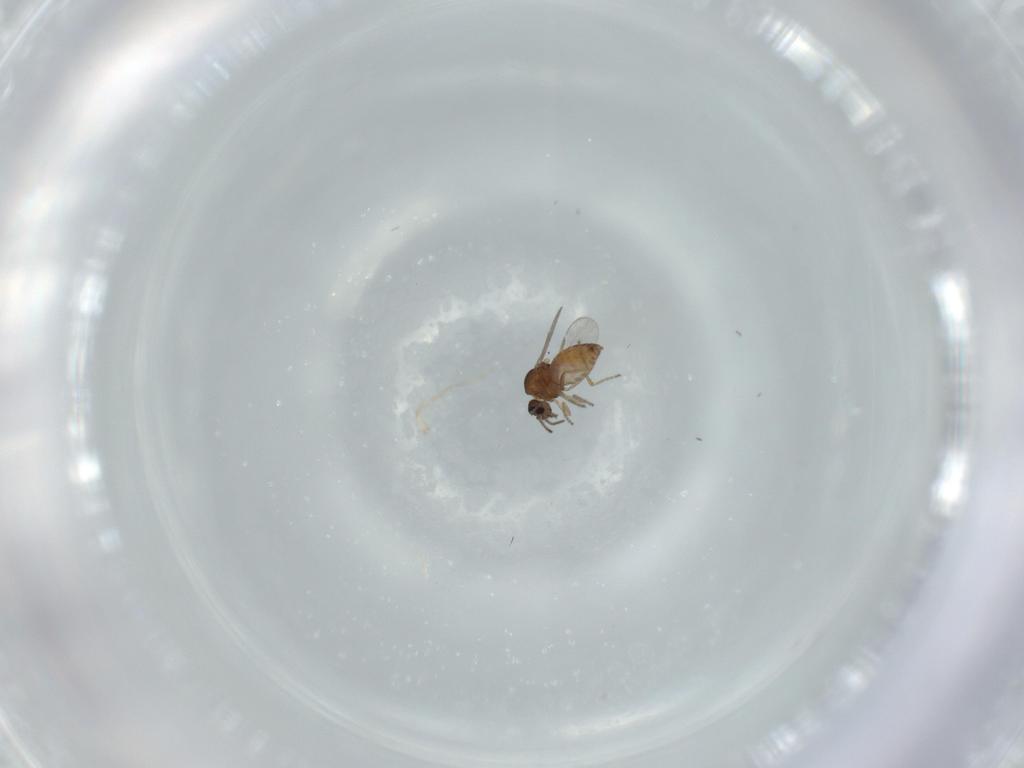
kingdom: Animalia
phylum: Arthropoda
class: Insecta
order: Diptera
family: Ceratopogonidae
